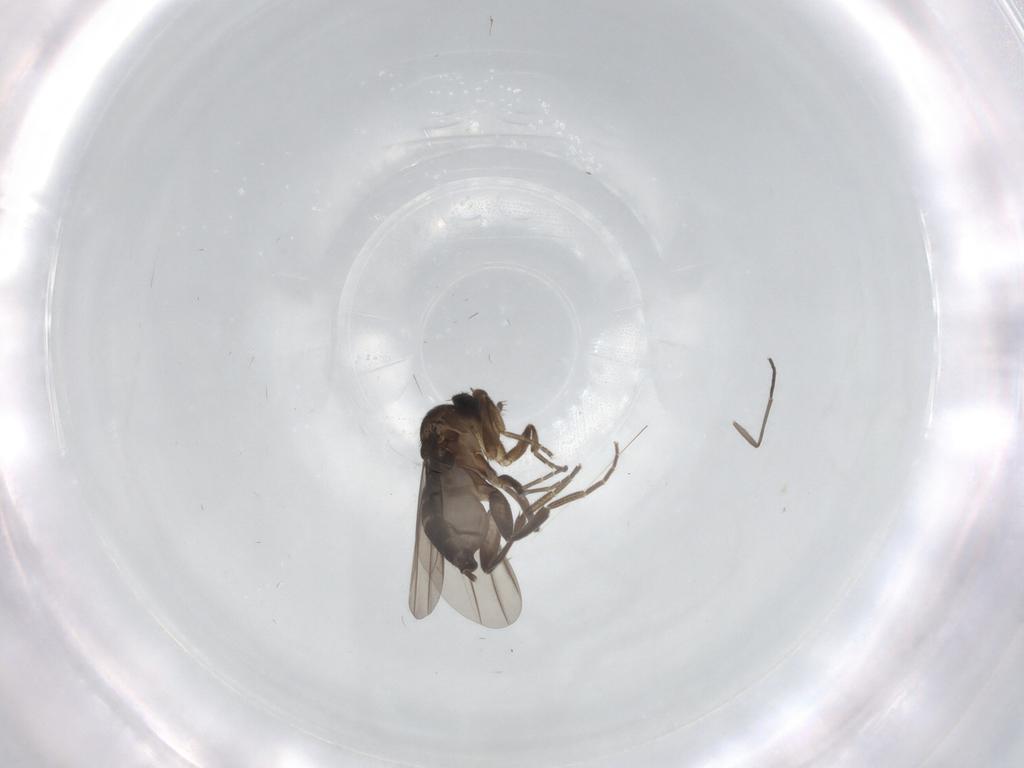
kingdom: Animalia
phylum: Arthropoda
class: Insecta
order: Diptera
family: Phoridae
